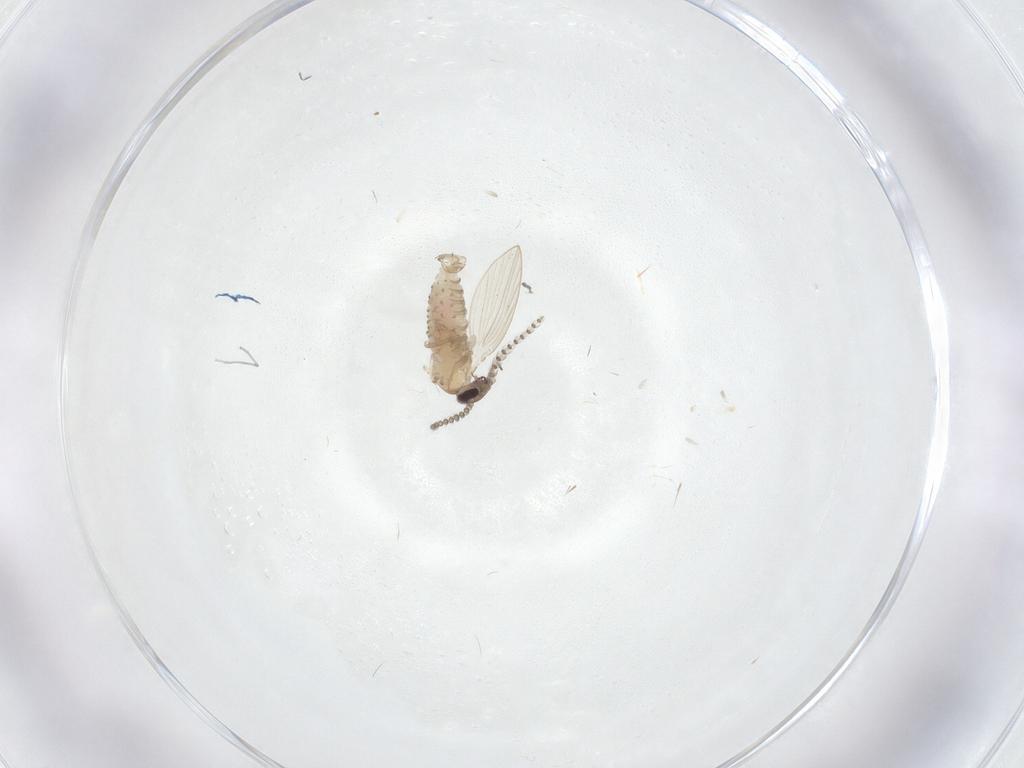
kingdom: Animalia
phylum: Arthropoda
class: Insecta
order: Diptera
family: Psychodidae
